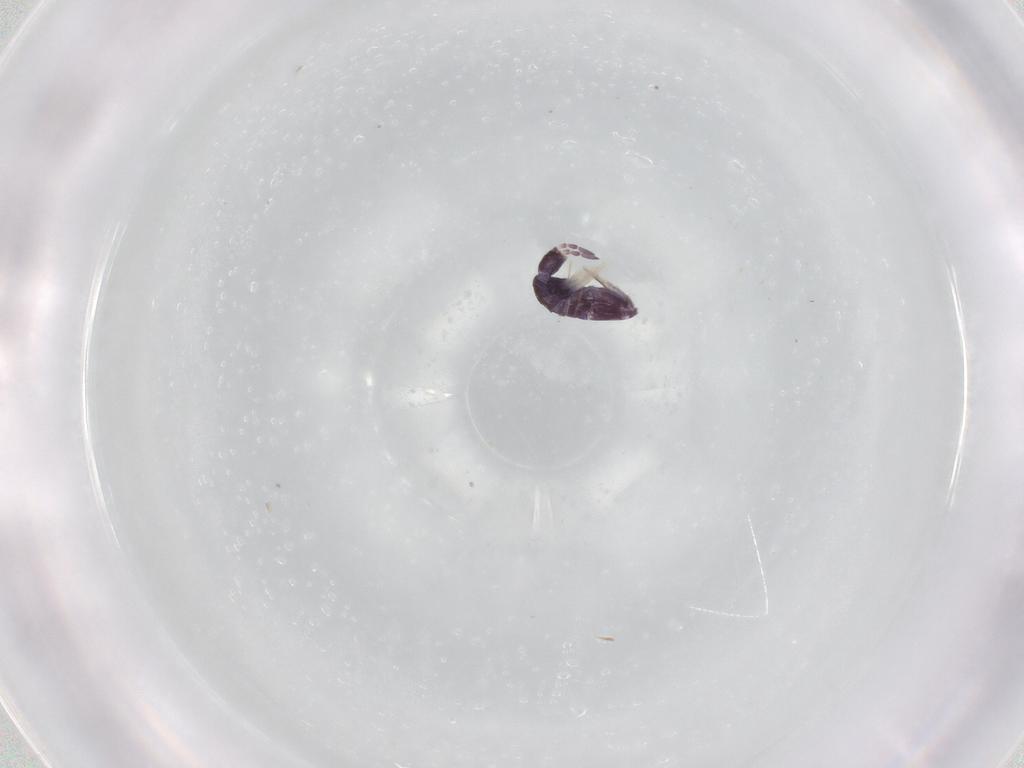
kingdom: Animalia
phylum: Arthropoda
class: Collembola
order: Entomobryomorpha
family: Entomobryidae
